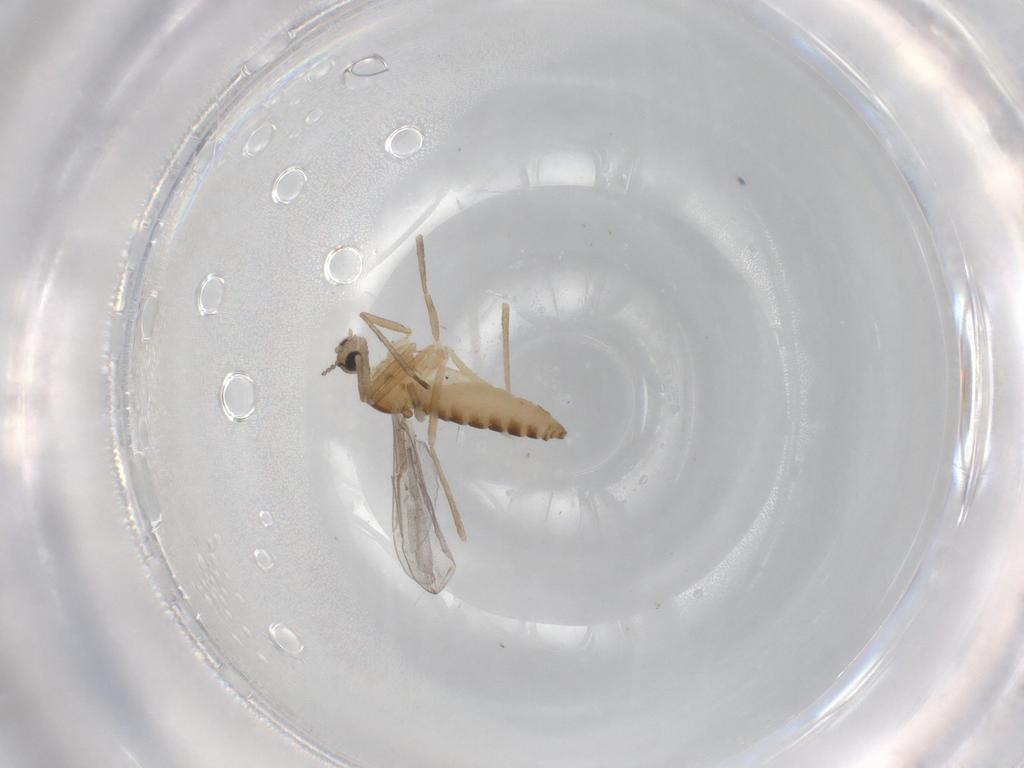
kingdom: Animalia
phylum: Arthropoda
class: Insecta
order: Diptera
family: Cecidomyiidae
